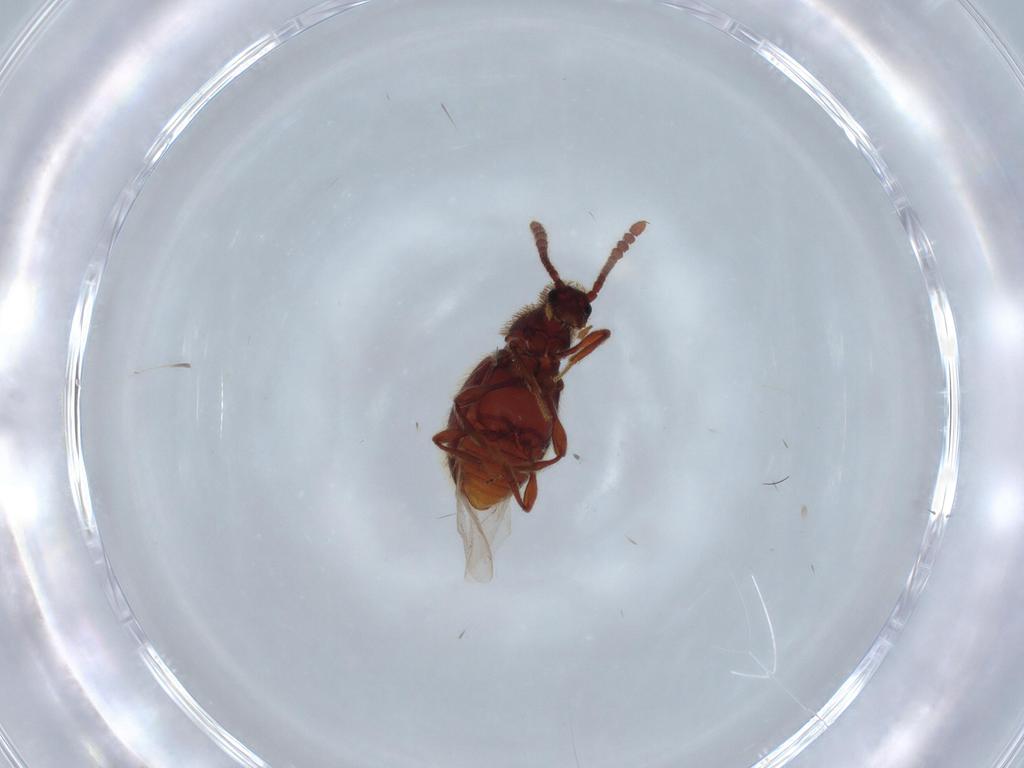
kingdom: Animalia
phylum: Arthropoda
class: Insecta
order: Coleoptera
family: Staphylinidae
